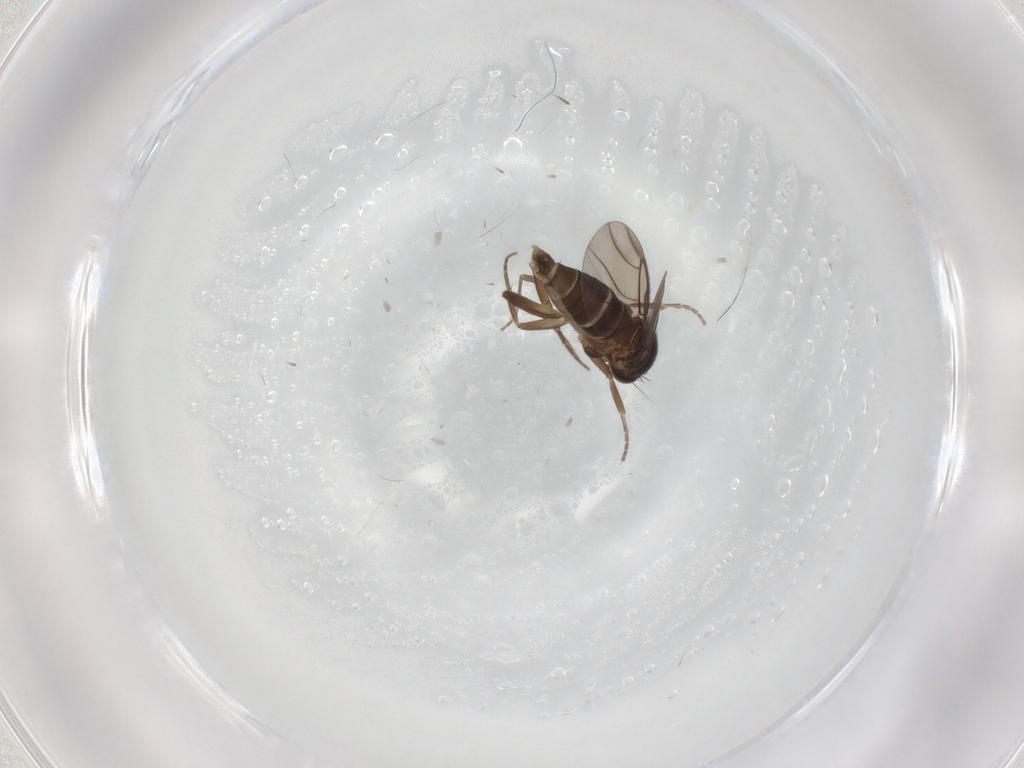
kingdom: Animalia
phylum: Arthropoda
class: Insecta
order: Diptera
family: Phoridae
